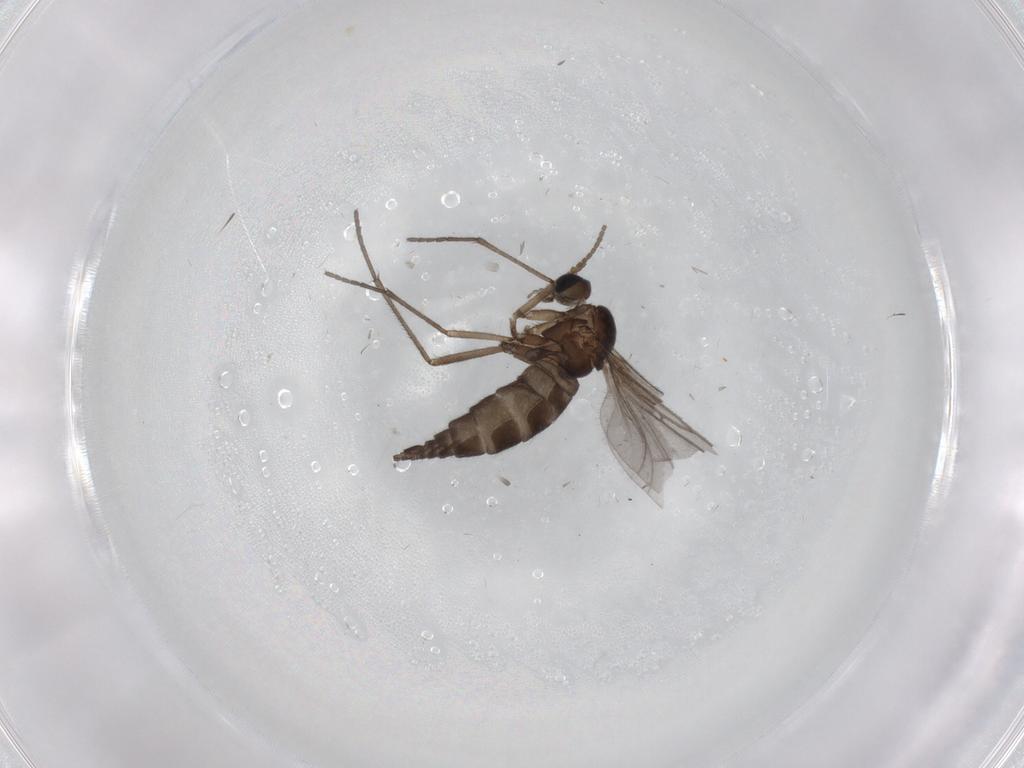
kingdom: Animalia
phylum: Arthropoda
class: Insecta
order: Diptera
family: Sciaridae
